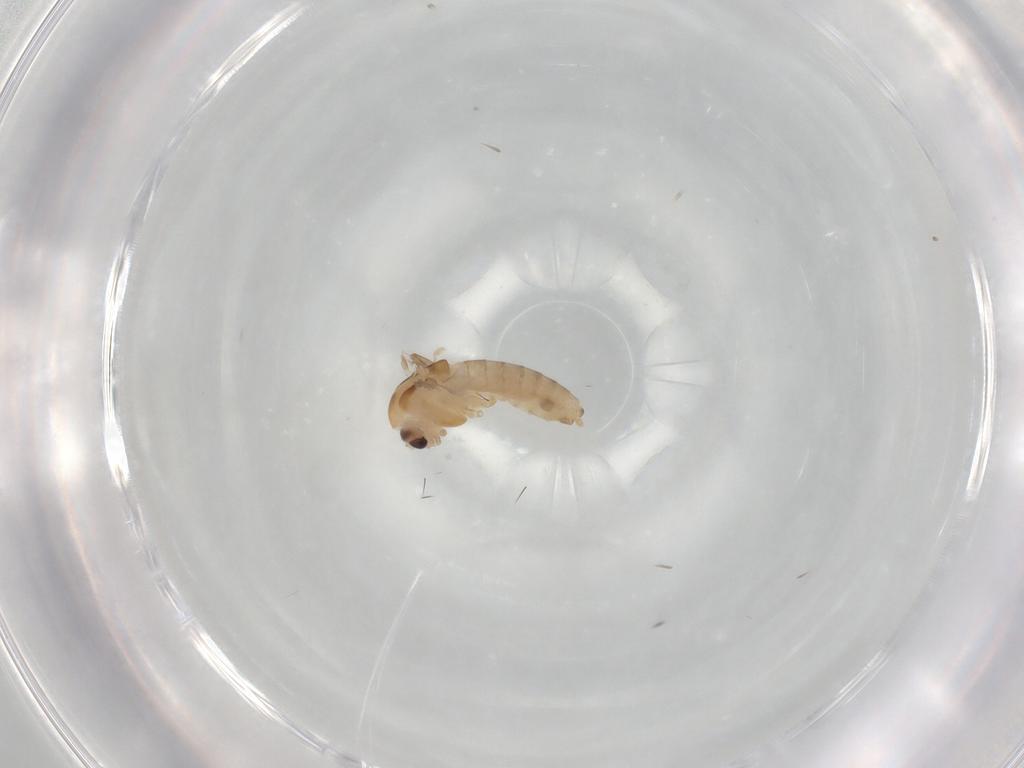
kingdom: Animalia
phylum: Arthropoda
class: Insecta
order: Diptera
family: Chironomidae
